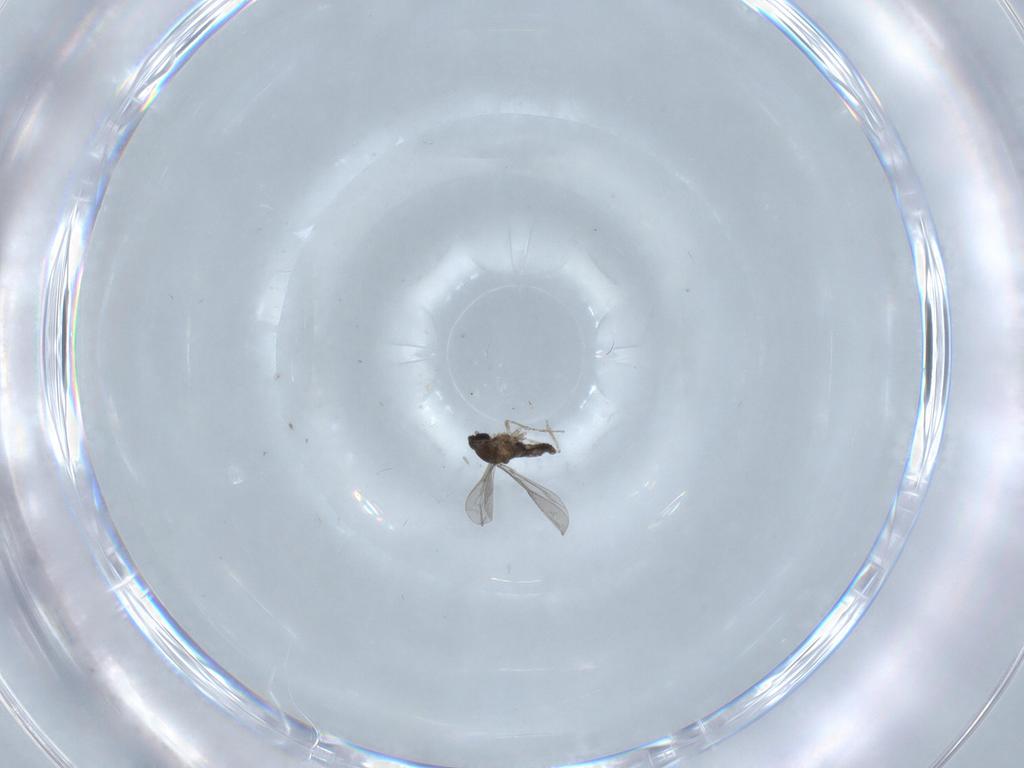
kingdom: Animalia
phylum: Arthropoda
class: Insecta
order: Diptera
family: Cecidomyiidae
